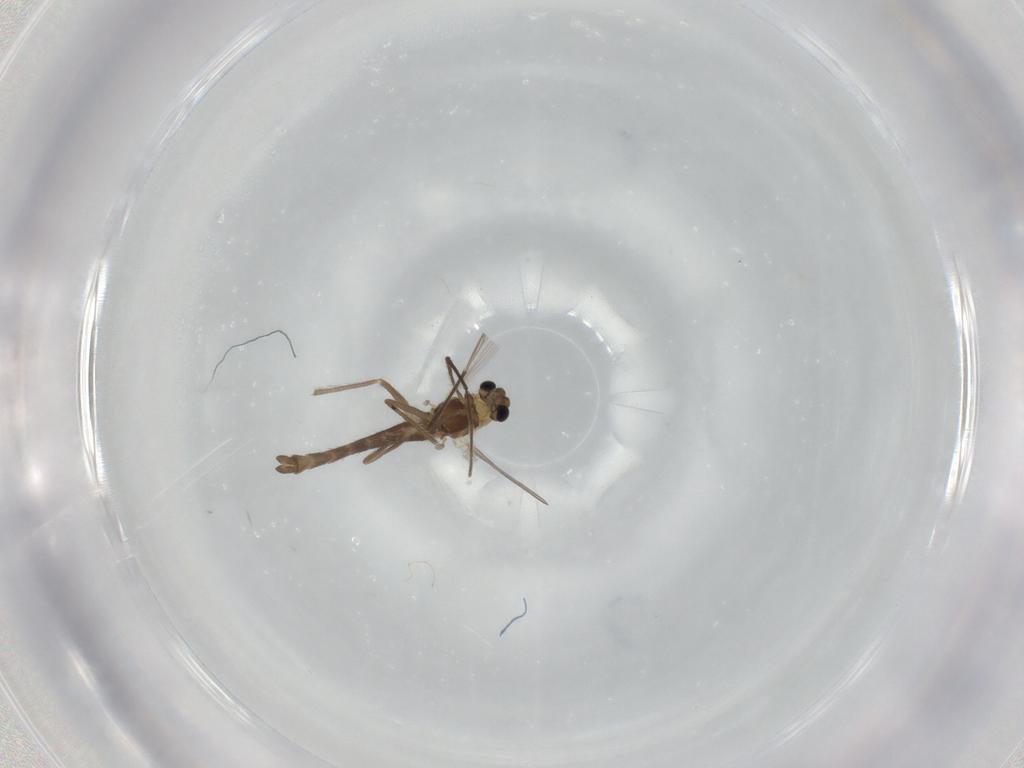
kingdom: Animalia
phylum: Arthropoda
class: Insecta
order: Diptera
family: Chironomidae
